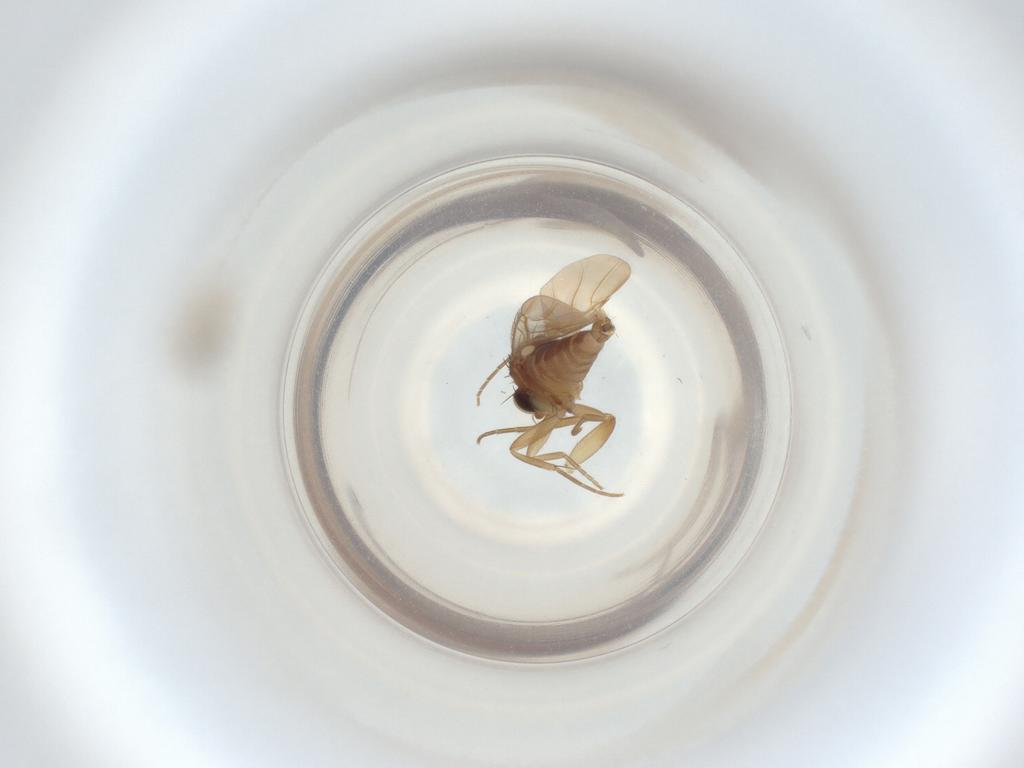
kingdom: Animalia
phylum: Arthropoda
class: Insecta
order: Diptera
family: Phoridae
